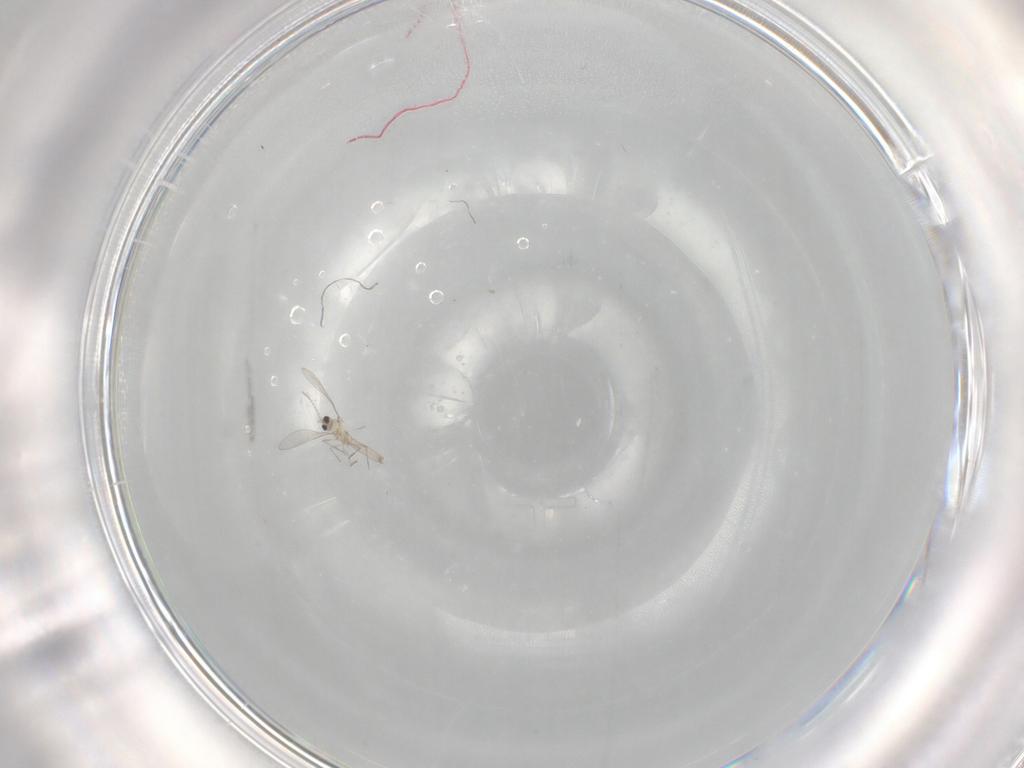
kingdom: Animalia
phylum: Arthropoda
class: Insecta
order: Diptera
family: Cecidomyiidae
